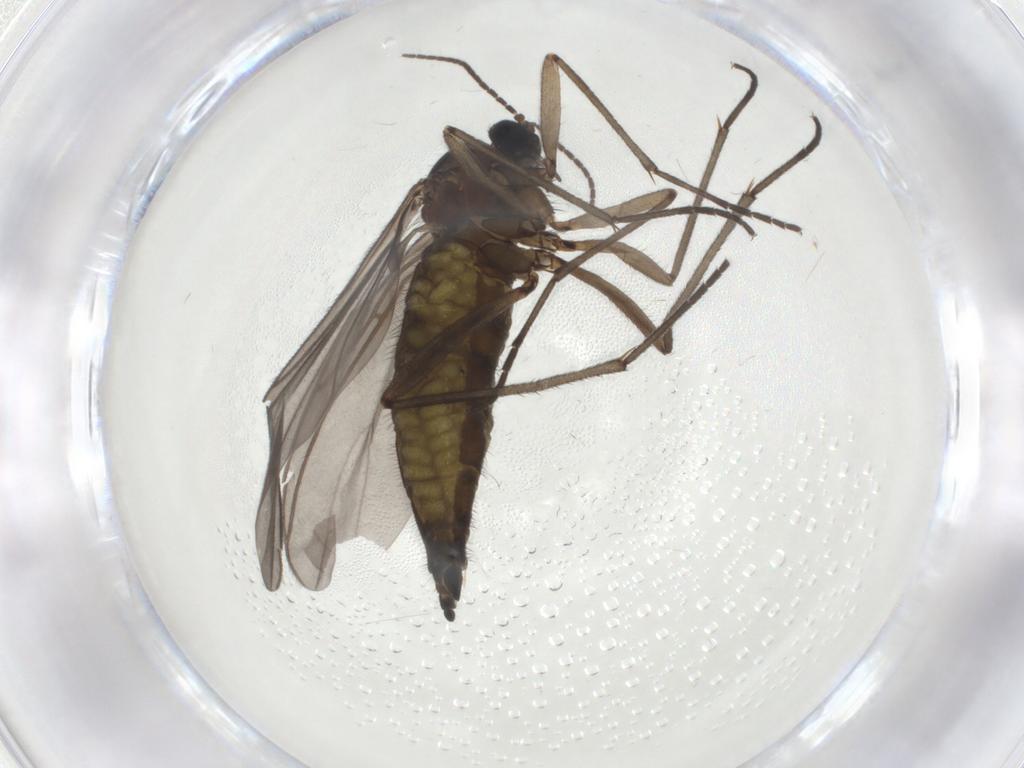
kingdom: Animalia
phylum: Arthropoda
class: Insecta
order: Diptera
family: Sciaridae
